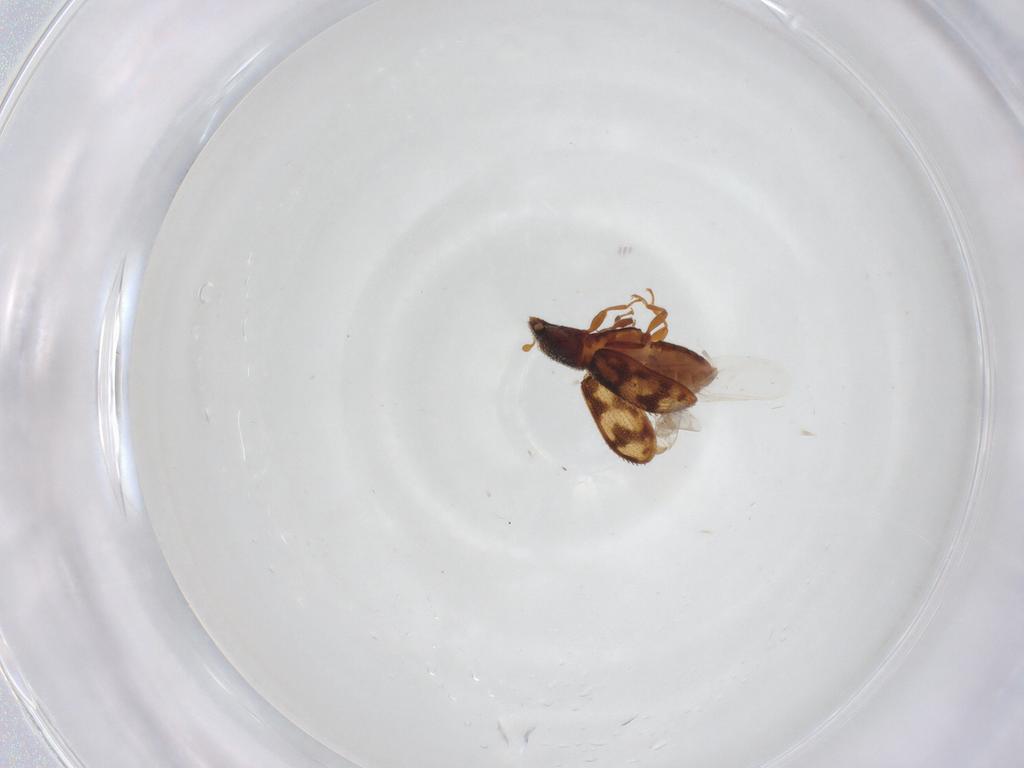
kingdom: Animalia
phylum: Arthropoda
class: Insecta
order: Coleoptera
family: Zopheridae
